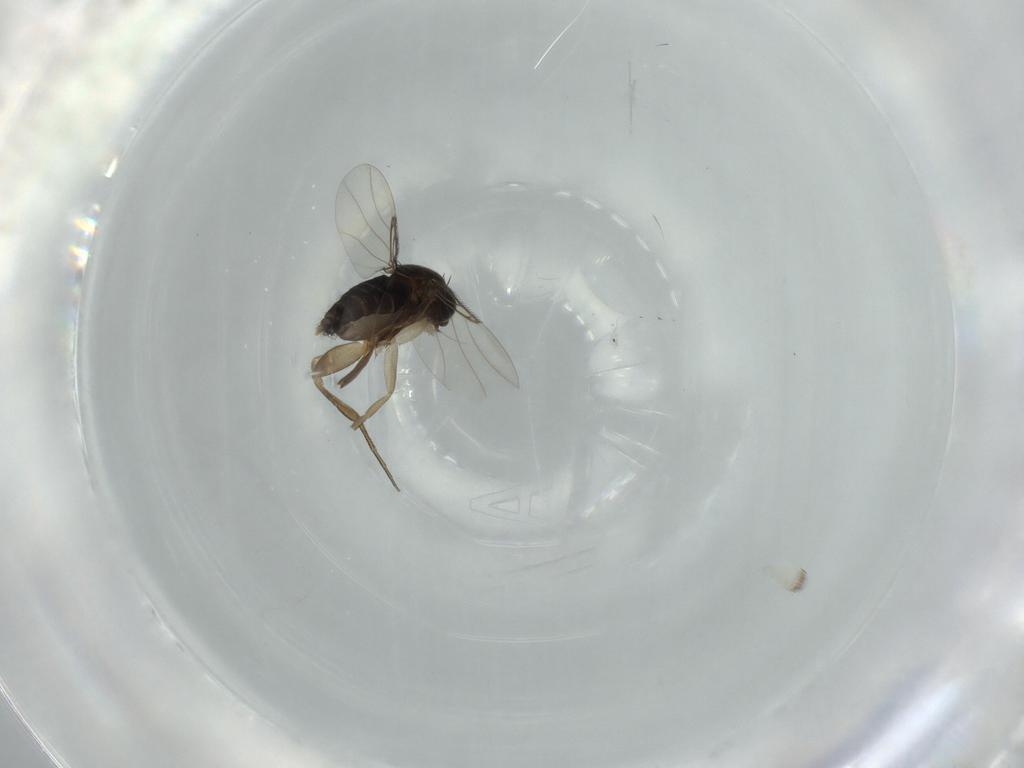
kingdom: Animalia
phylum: Arthropoda
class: Insecta
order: Diptera
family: Phoridae
